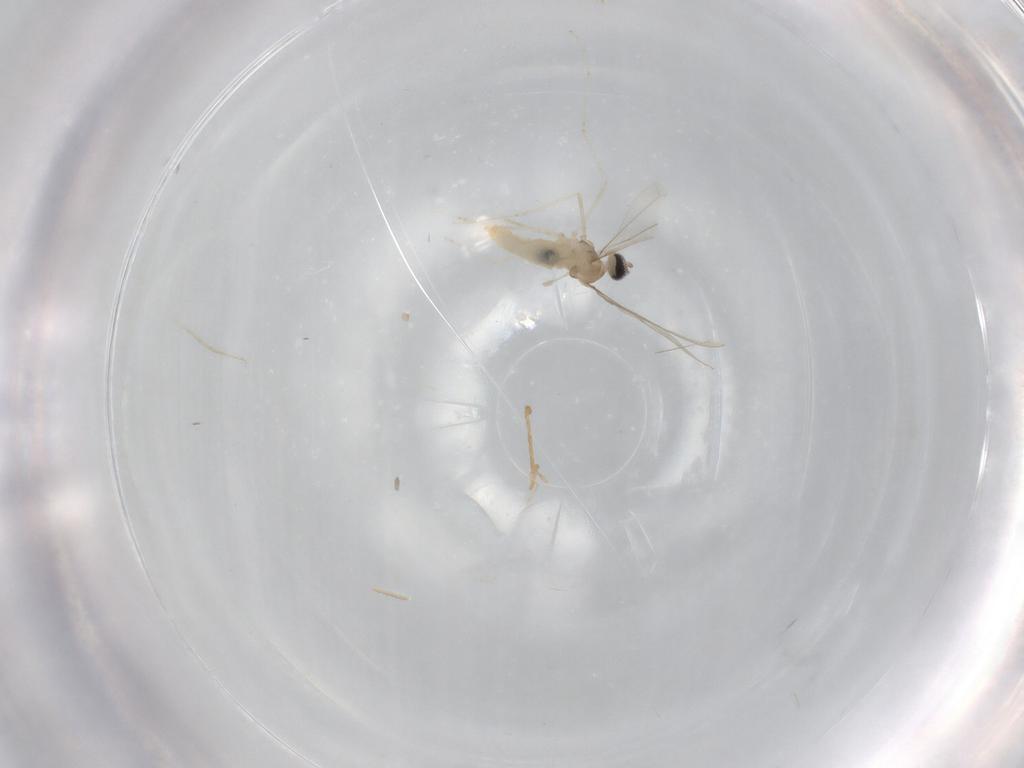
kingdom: Animalia
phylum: Arthropoda
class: Insecta
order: Diptera
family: Cecidomyiidae
